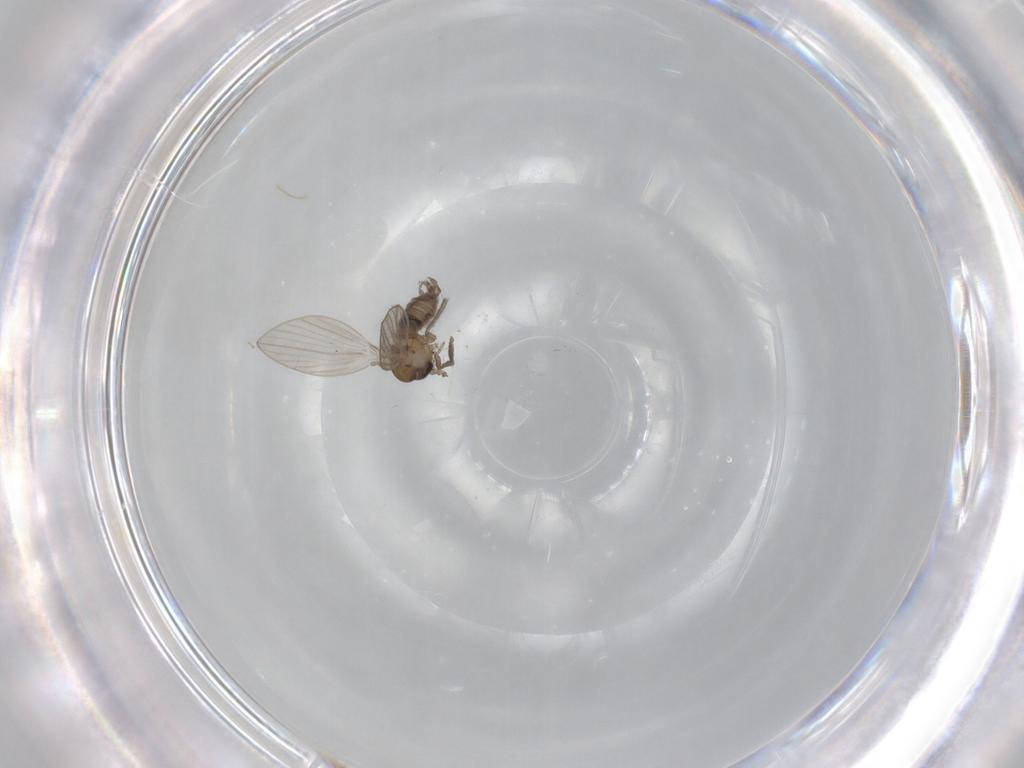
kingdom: Animalia
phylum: Arthropoda
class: Insecta
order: Diptera
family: Psychodidae
